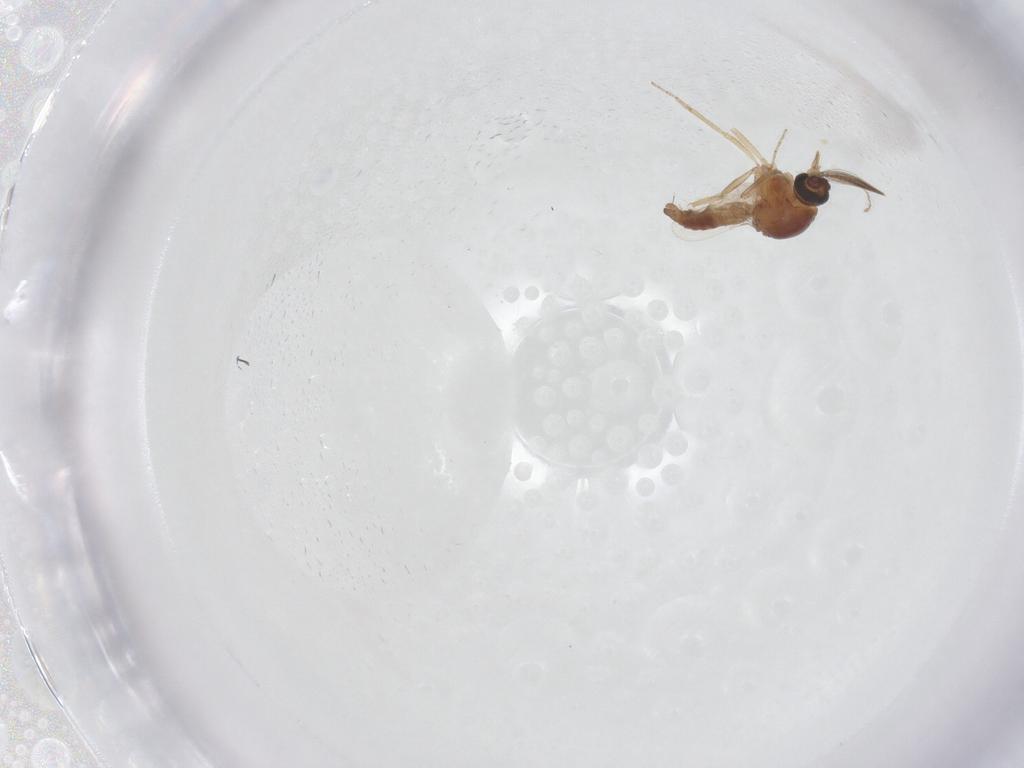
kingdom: Animalia
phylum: Arthropoda
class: Insecta
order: Diptera
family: Ceratopogonidae
